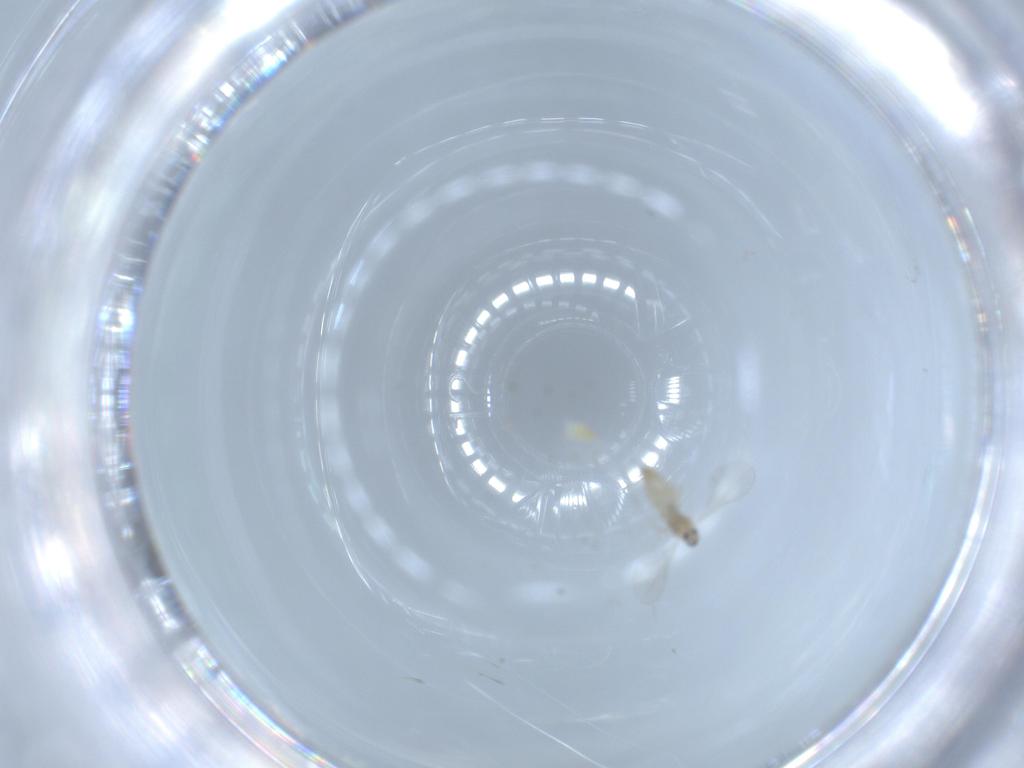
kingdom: Animalia
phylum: Arthropoda
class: Insecta
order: Diptera
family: Cecidomyiidae
